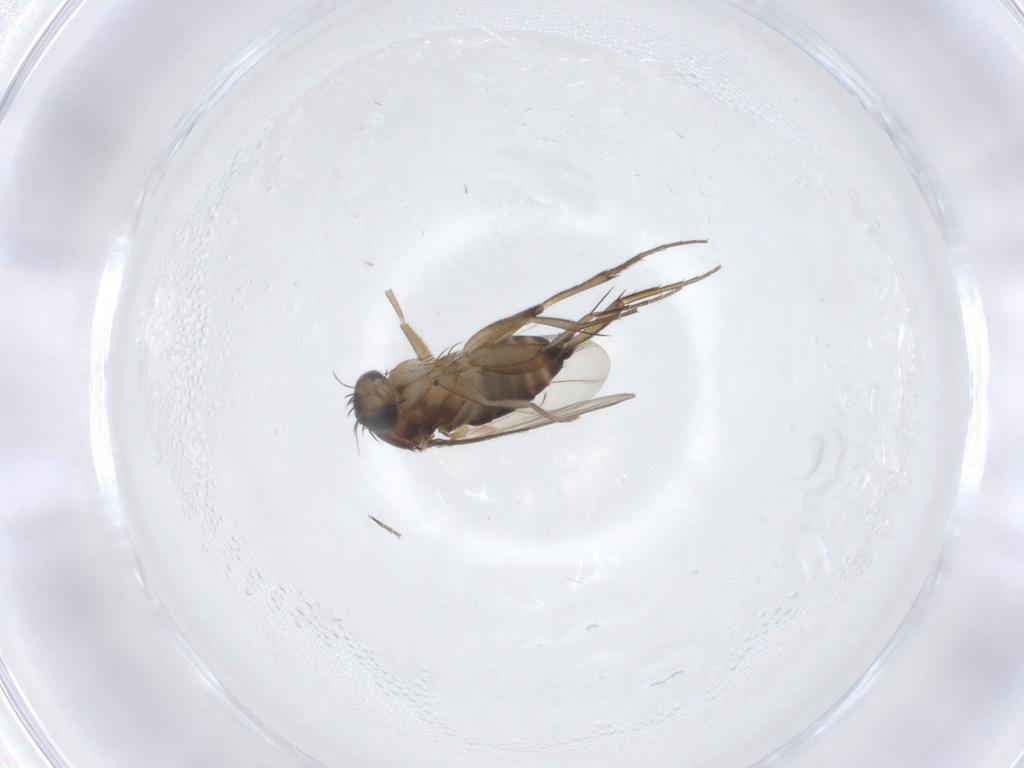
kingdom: Animalia
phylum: Arthropoda
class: Insecta
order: Diptera
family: Phoridae
